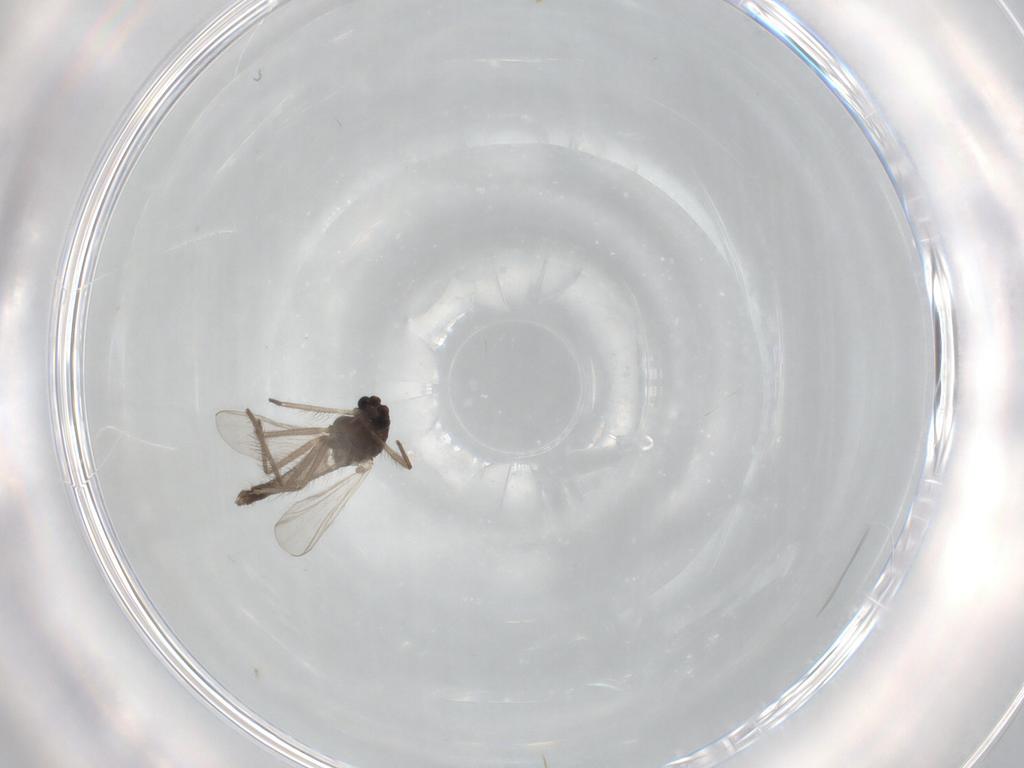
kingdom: Animalia
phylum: Arthropoda
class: Insecta
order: Diptera
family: Chironomidae
